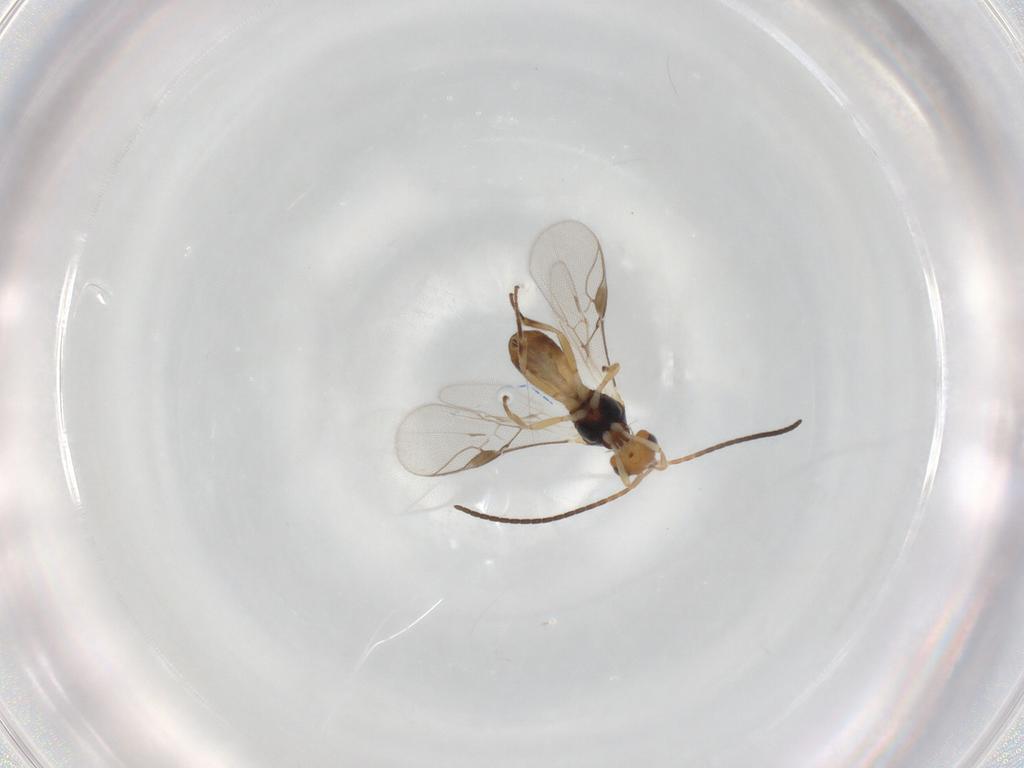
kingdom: Animalia
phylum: Arthropoda
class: Insecta
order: Hymenoptera
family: Braconidae
